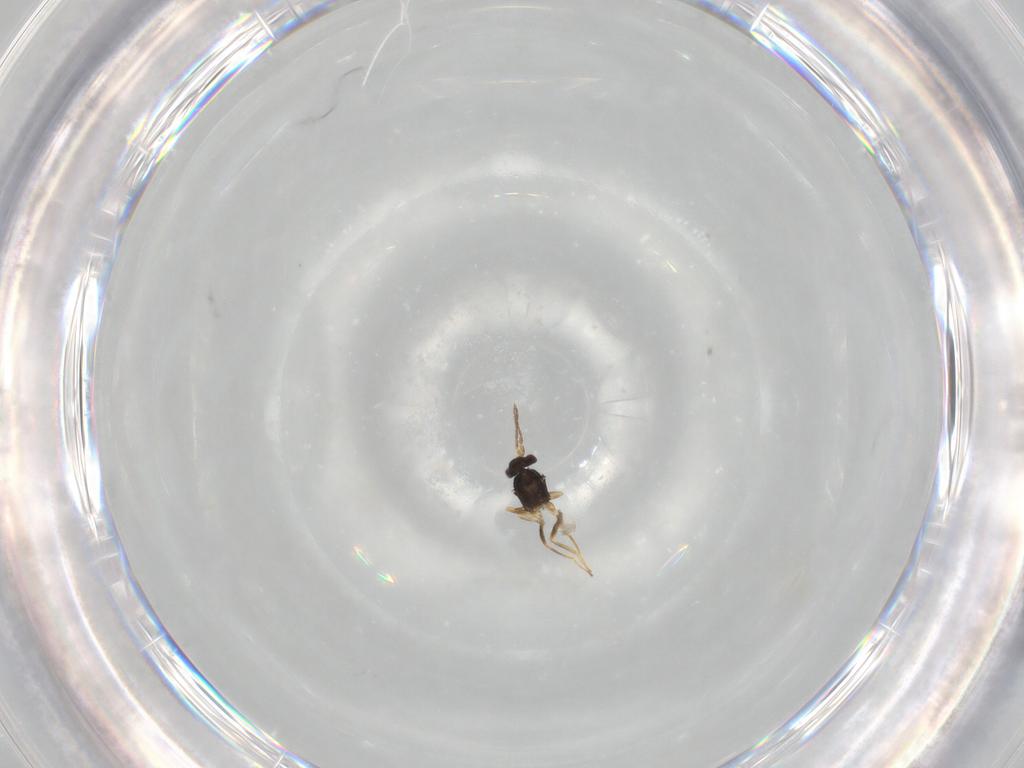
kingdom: Animalia
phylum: Arthropoda
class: Insecta
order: Hymenoptera
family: Eulophidae
